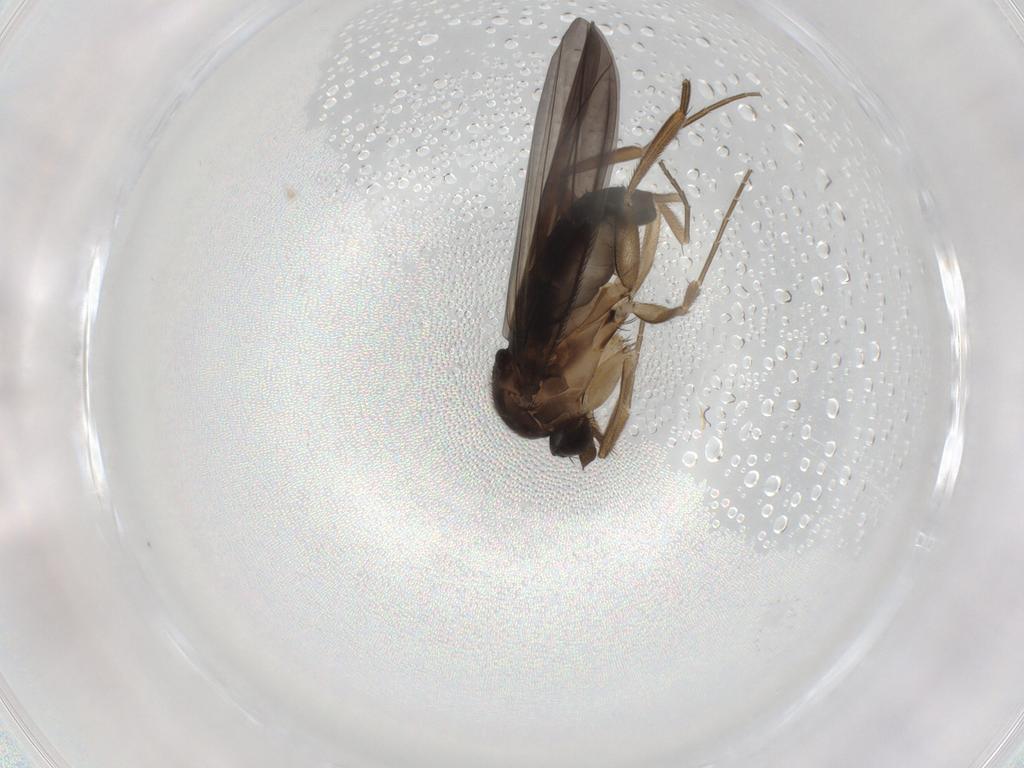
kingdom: Animalia
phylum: Arthropoda
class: Insecta
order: Diptera
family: Phoridae
